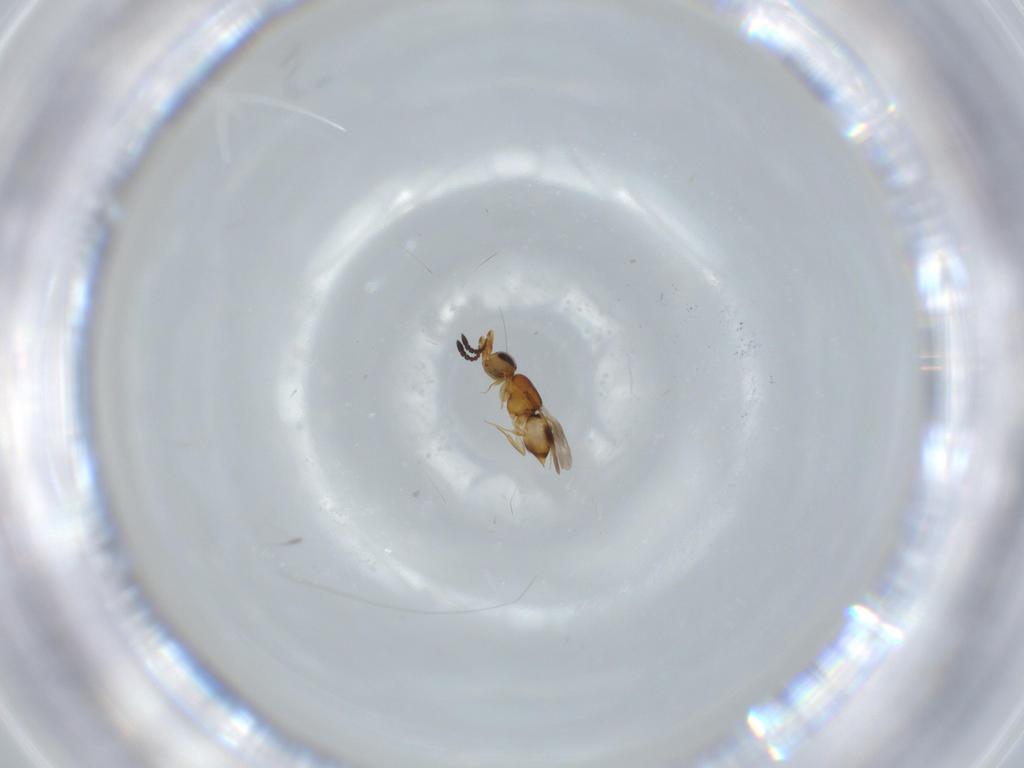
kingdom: Animalia
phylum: Arthropoda
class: Insecta
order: Hymenoptera
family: Ceraphronidae
